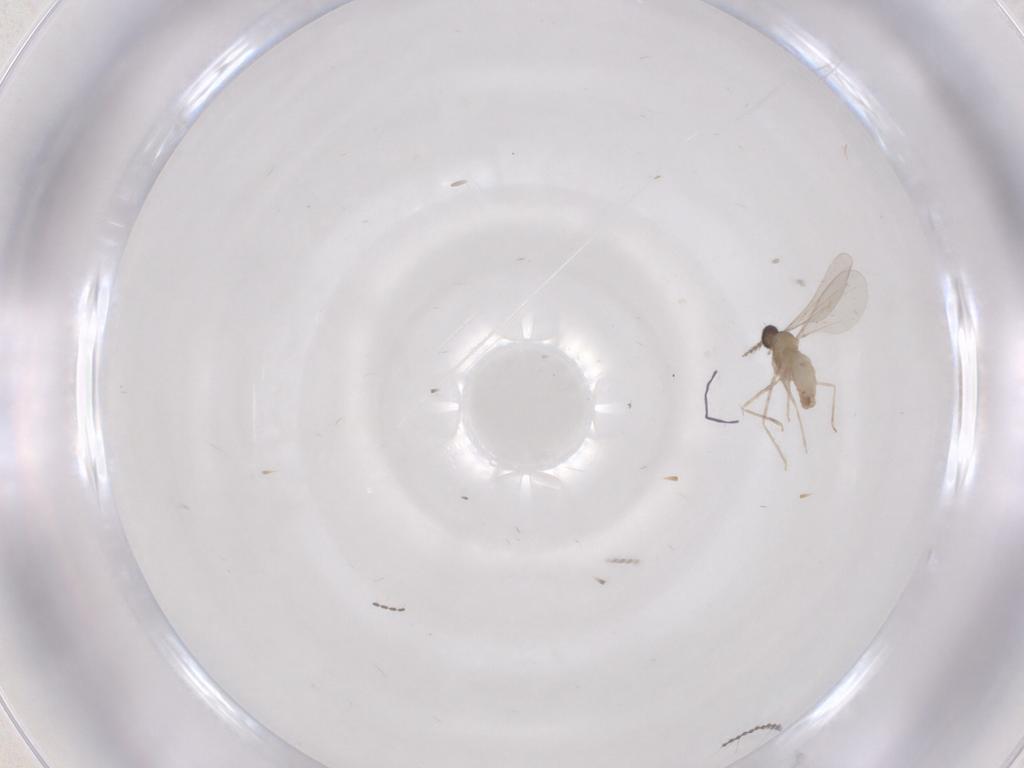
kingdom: Animalia
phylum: Arthropoda
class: Insecta
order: Diptera
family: Cecidomyiidae
